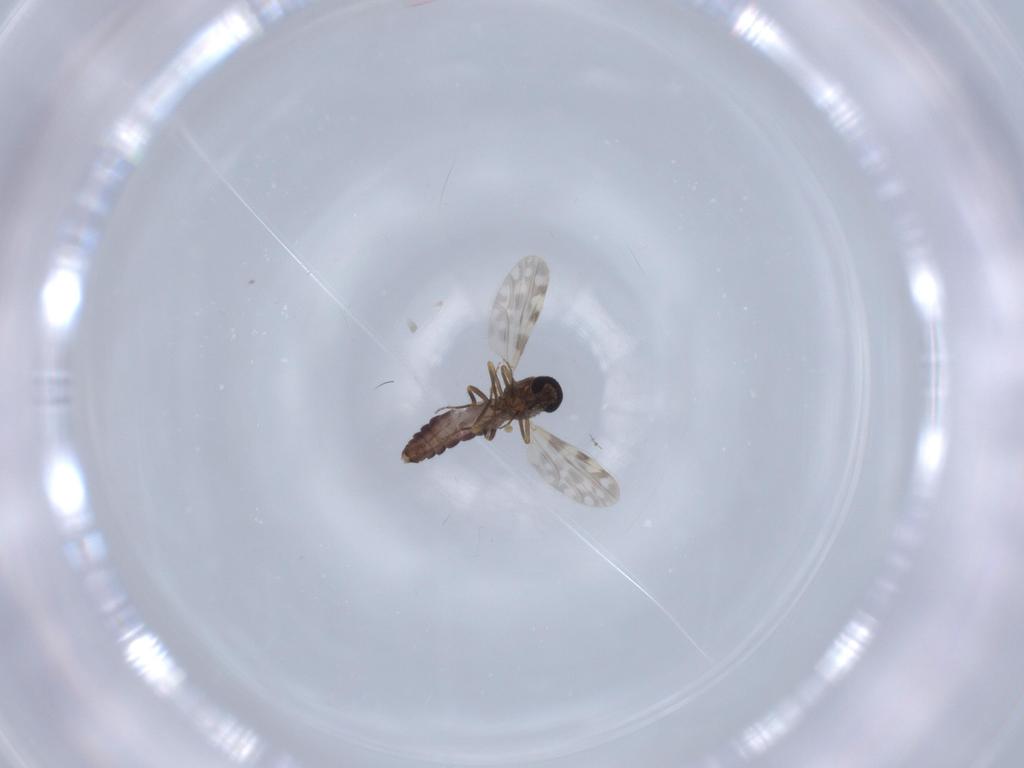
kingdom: Animalia
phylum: Arthropoda
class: Insecta
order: Diptera
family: Ceratopogonidae
